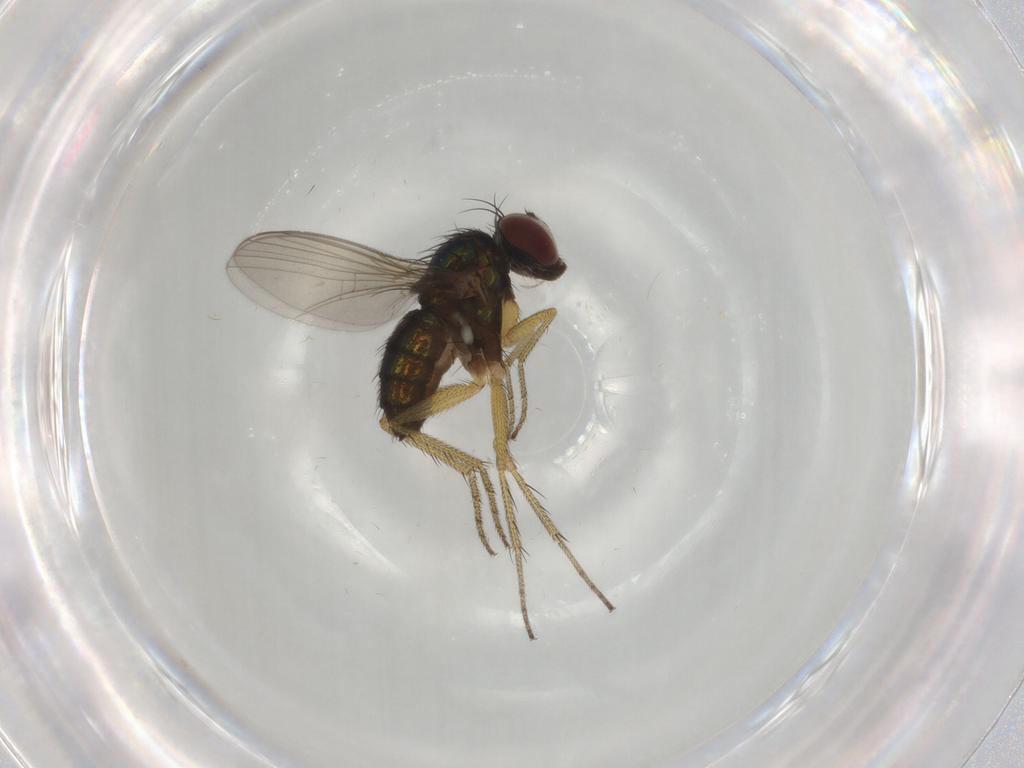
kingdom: Animalia
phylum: Arthropoda
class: Insecta
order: Diptera
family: Dolichopodidae
